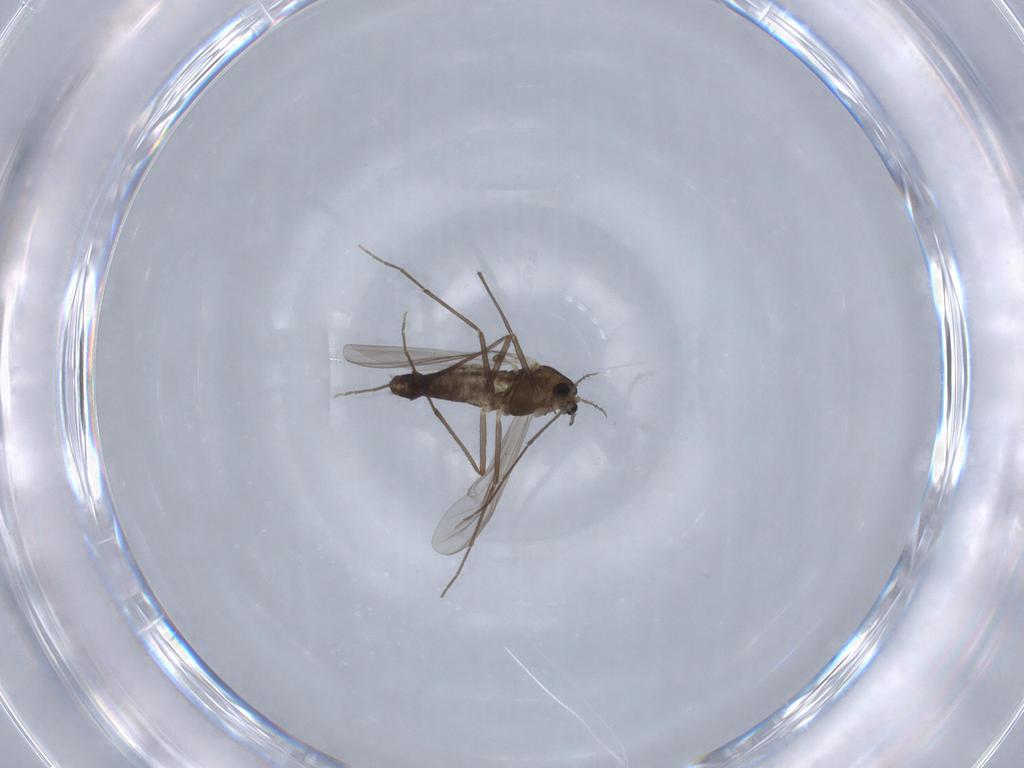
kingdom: Animalia
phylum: Arthropoda
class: Insecta
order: Diptera
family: Chironomidae
